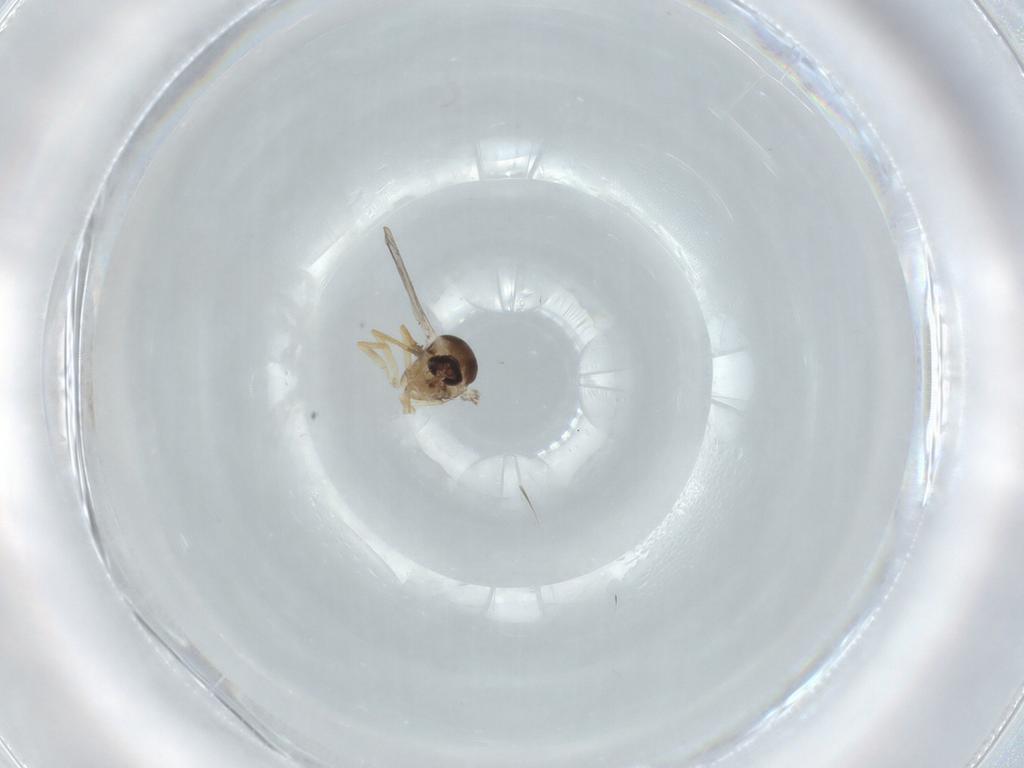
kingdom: Animalia
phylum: Arthropoda
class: Insecta
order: Diptera
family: Ceratopogonidae
